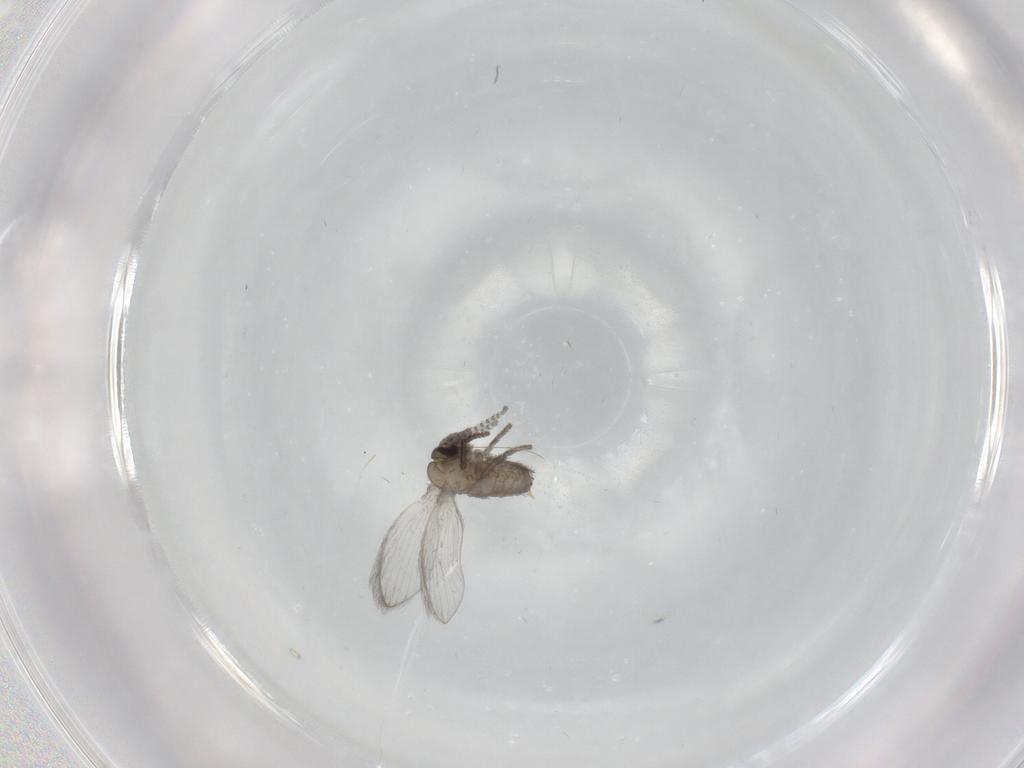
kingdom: Animalia
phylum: Arthropoda
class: Insecta
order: Diptera
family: Psychodidae
